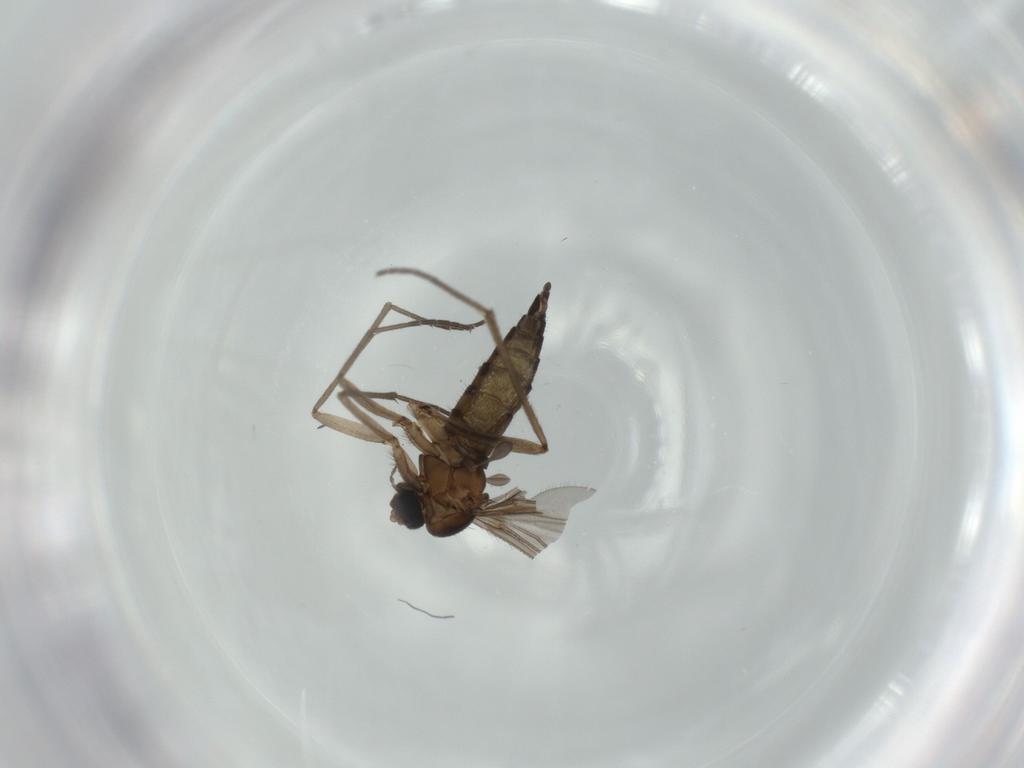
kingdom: Animalia
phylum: Arthropoda
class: Insecta
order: Diptera
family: Sciaridae
